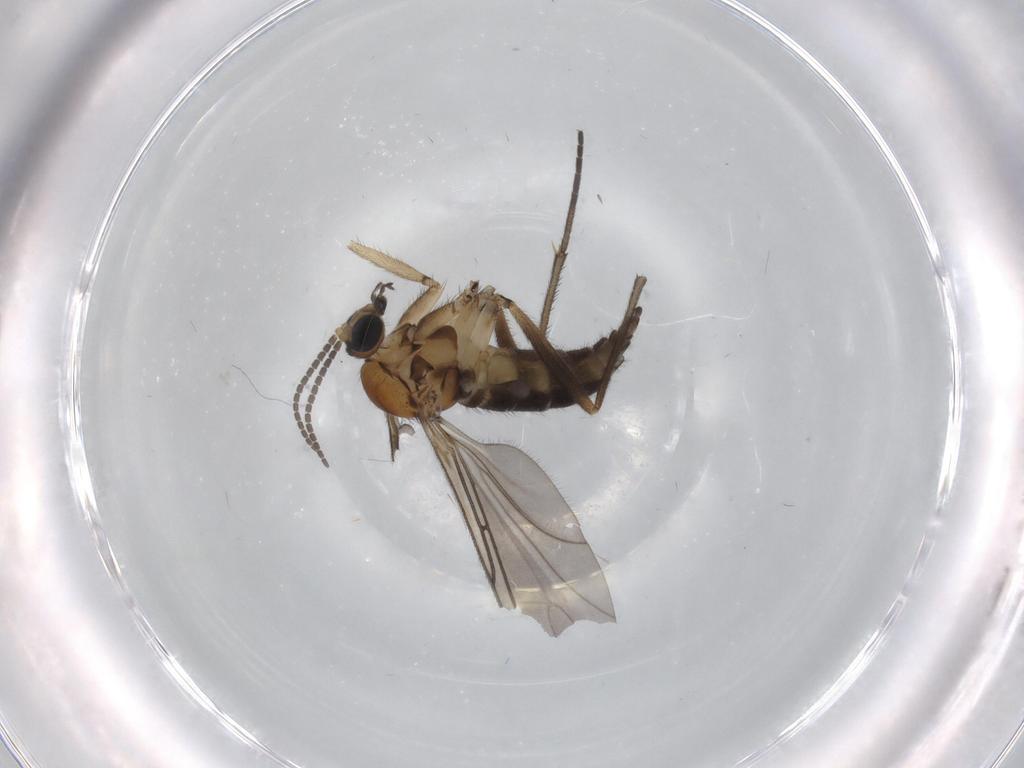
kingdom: Animalia
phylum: Arthropoda
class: Insecta
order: Diptera
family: Sciaridae
